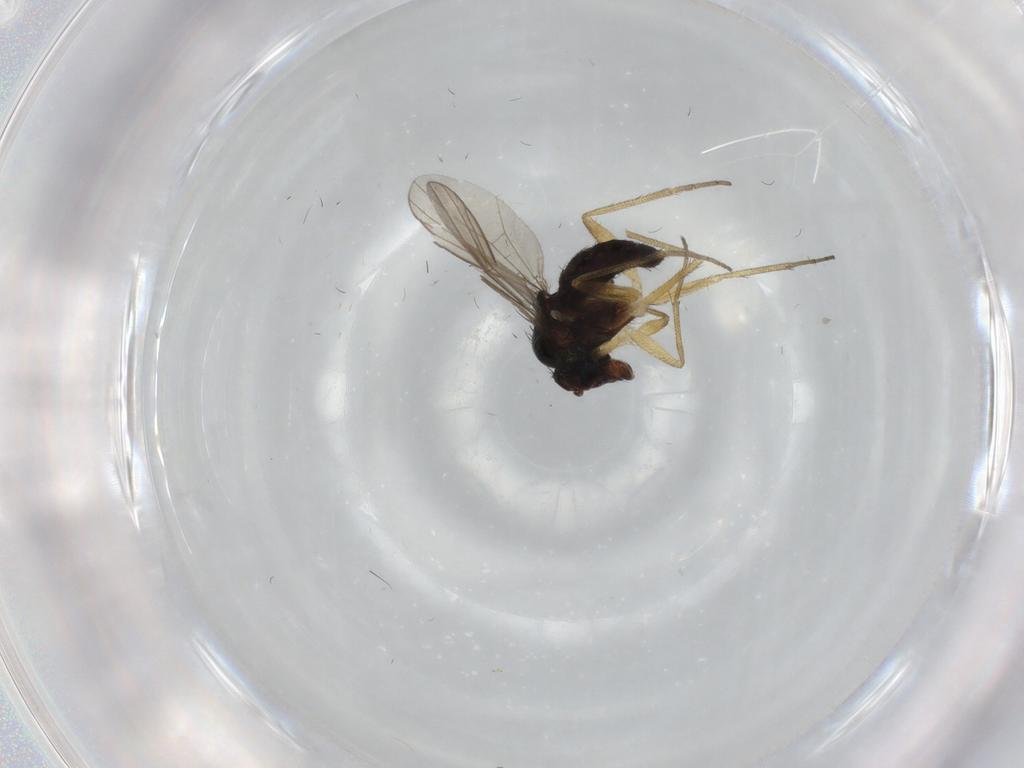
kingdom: Animalia
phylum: Arthropoda
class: Insecta
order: Diptera
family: Dolichopodidae
